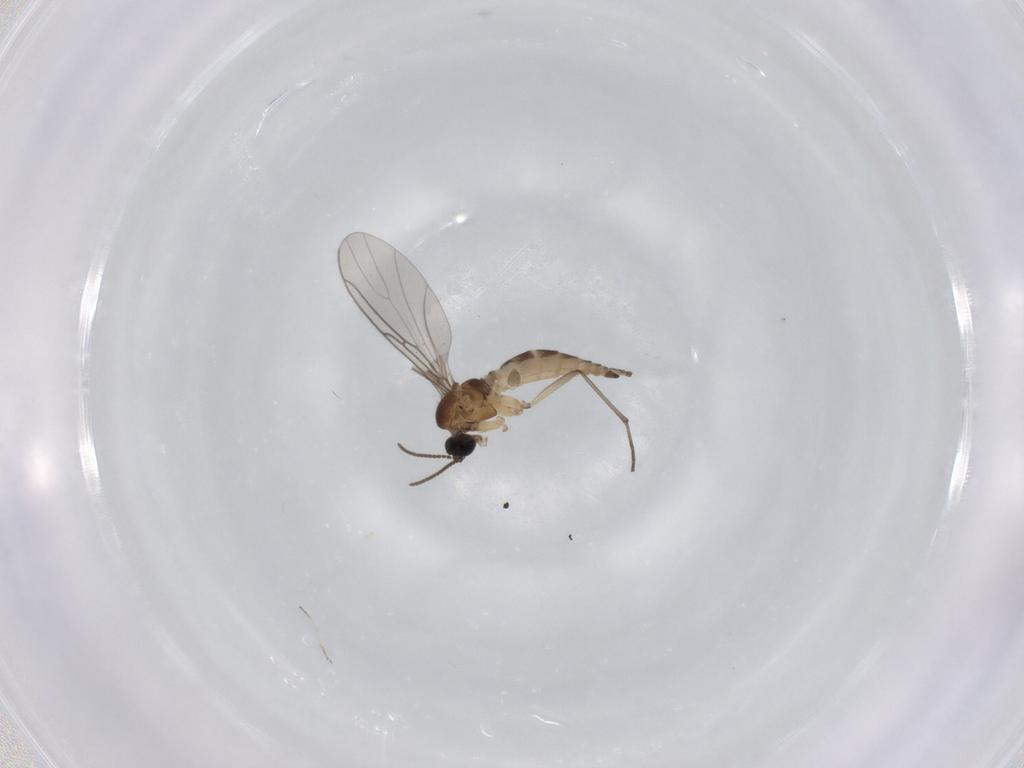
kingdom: Animalia
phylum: Arthropoda
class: Insecta
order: Diptera
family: Sciaridae
